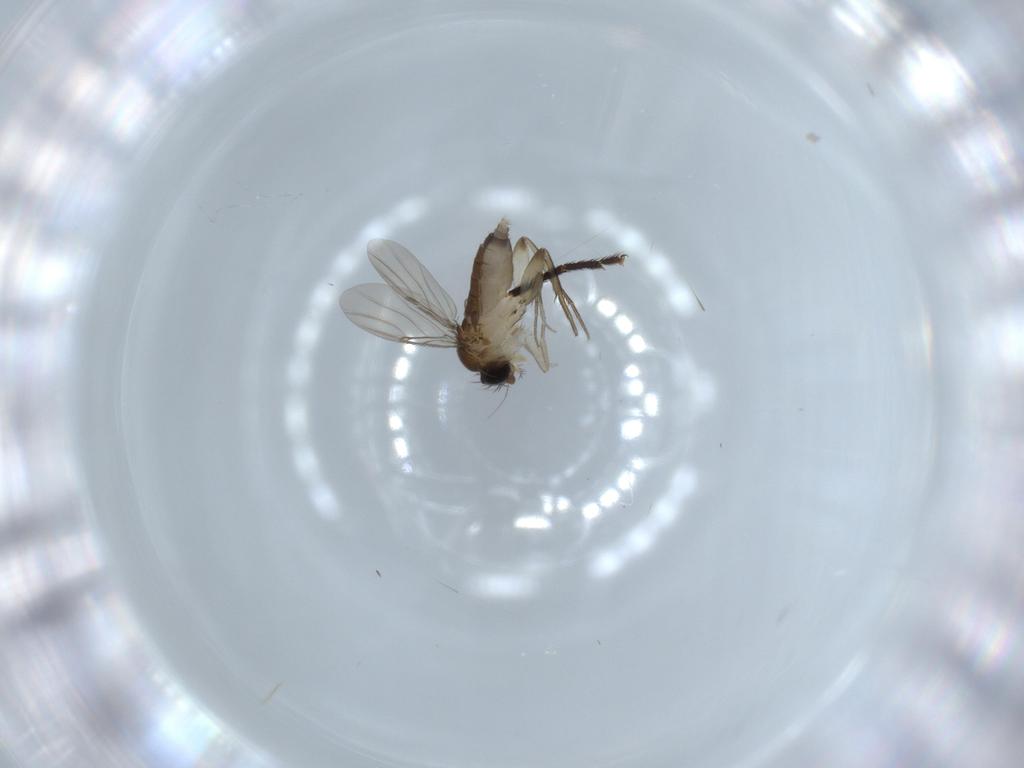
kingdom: Animalia
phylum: Arthropoda
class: Insecta
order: Diptera
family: Phoridae
